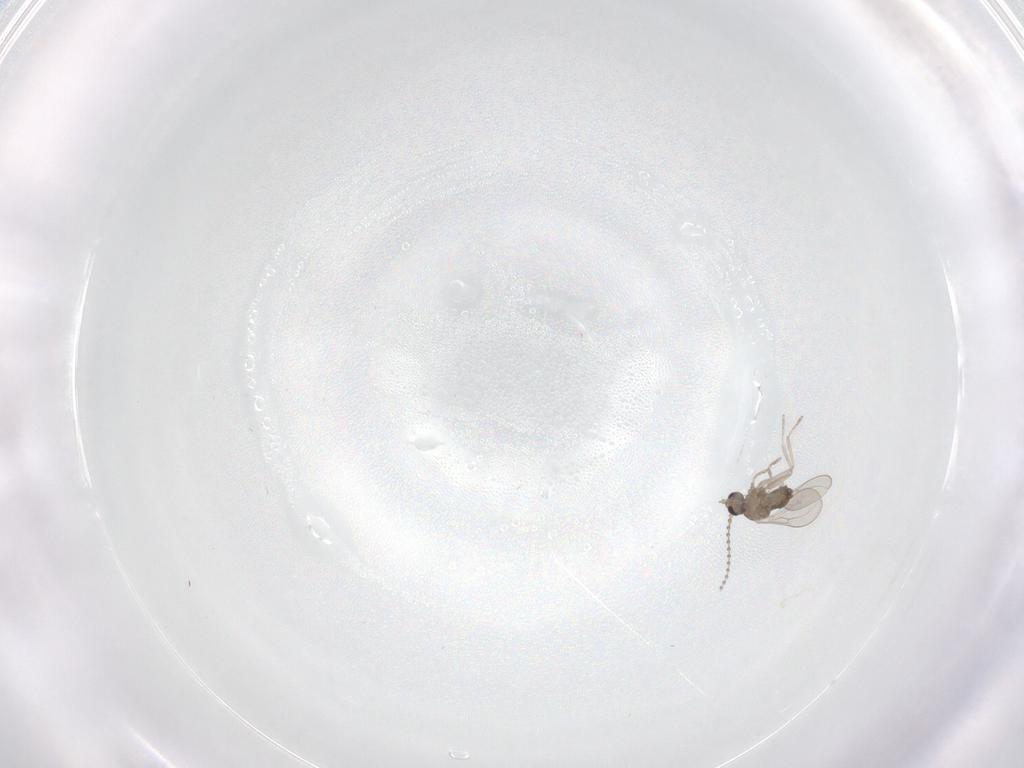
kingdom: Animalia
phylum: Arthropoda
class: Insecta
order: Diptera
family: Cecidomyiidae
